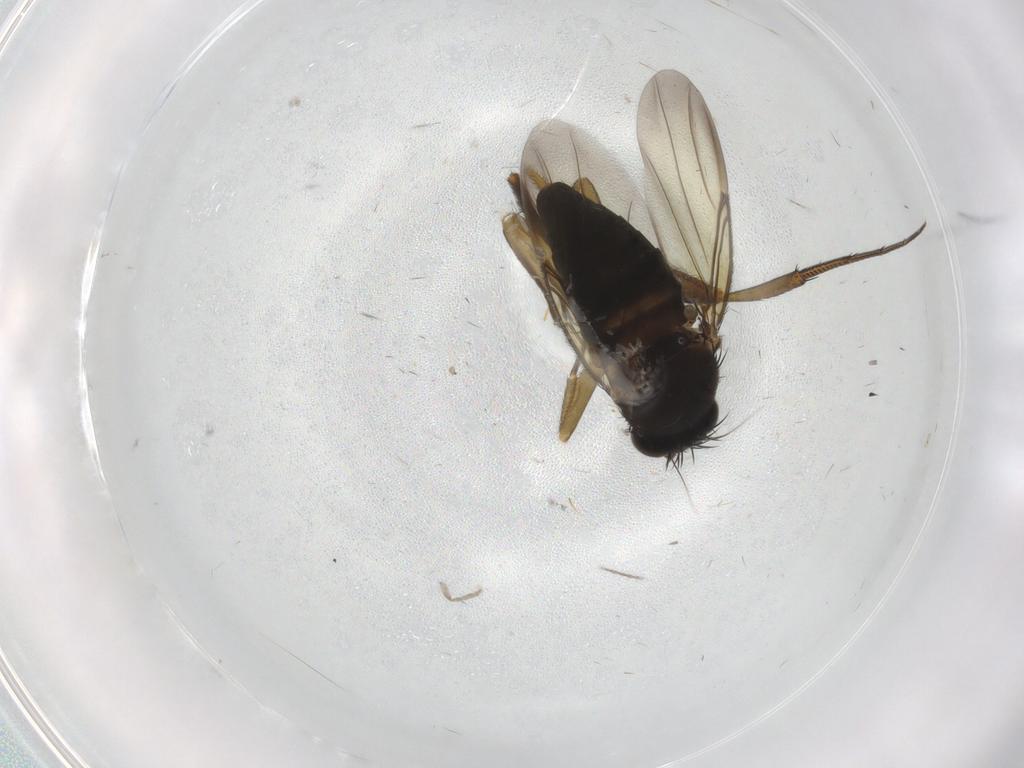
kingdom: Animalia
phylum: Arthropoda
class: Insecta
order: Diptera
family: Phoridae
